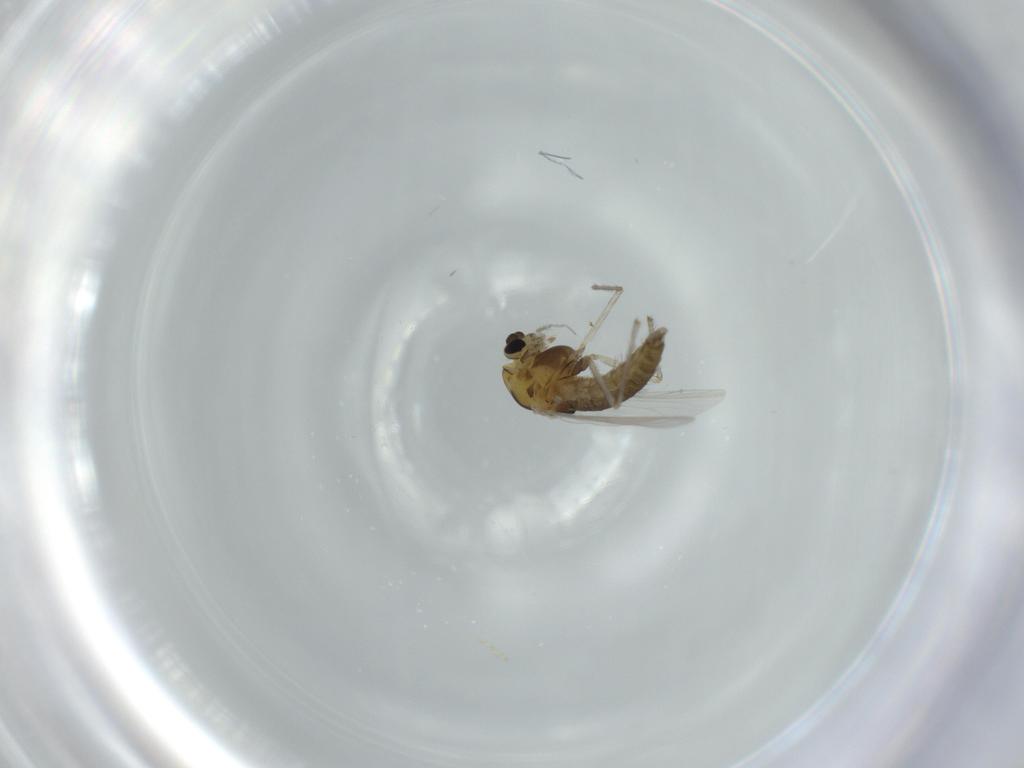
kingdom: Animalia
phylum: Arthropoda
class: Insecta
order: Diptera
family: Chironomidae
